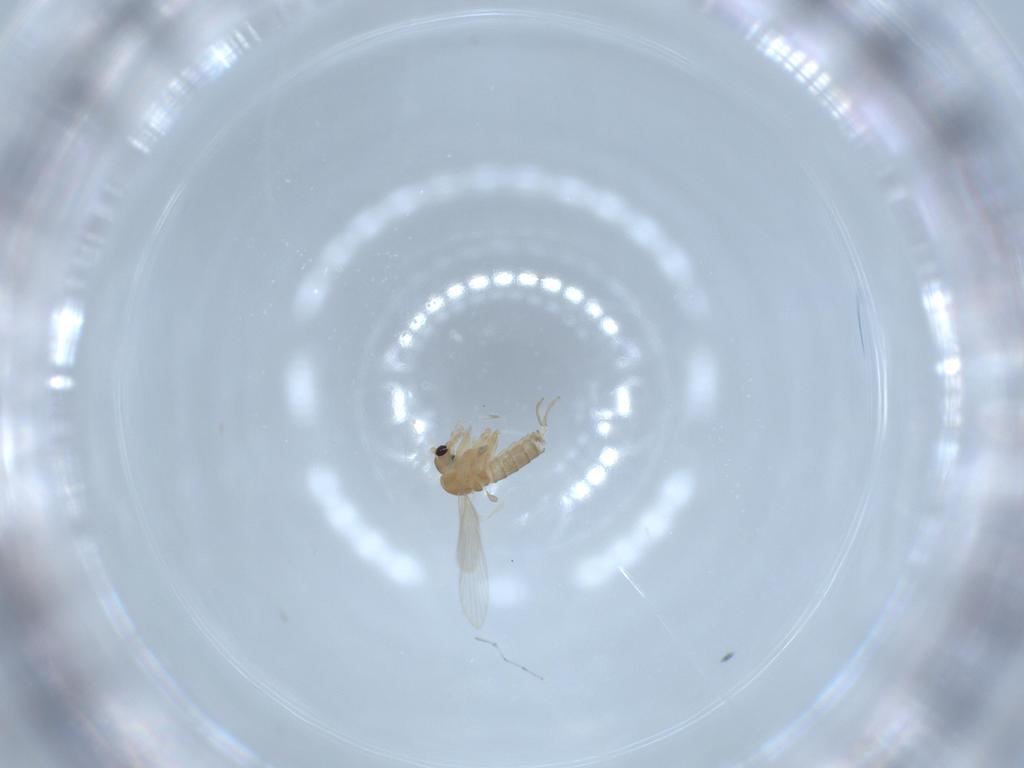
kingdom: Animalia
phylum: Arthropoda
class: Insecta
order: Diptera
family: Psychodidae
